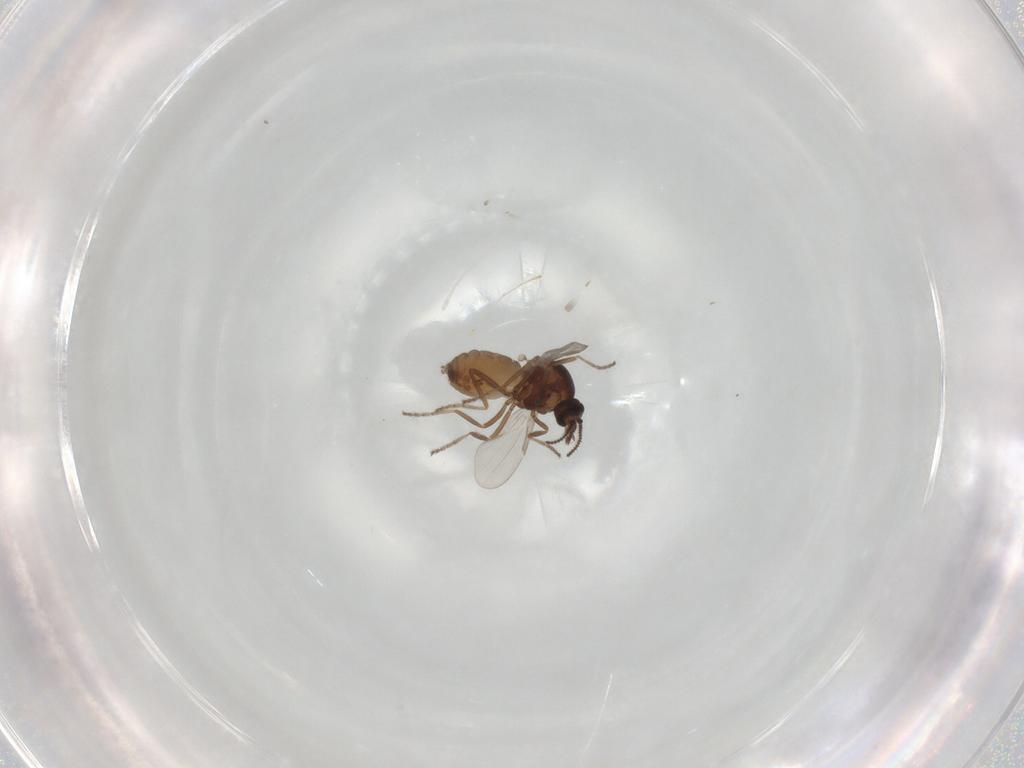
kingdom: Animalia
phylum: Arthropoda
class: Insecta
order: Diptera
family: Ceratopogonidae
